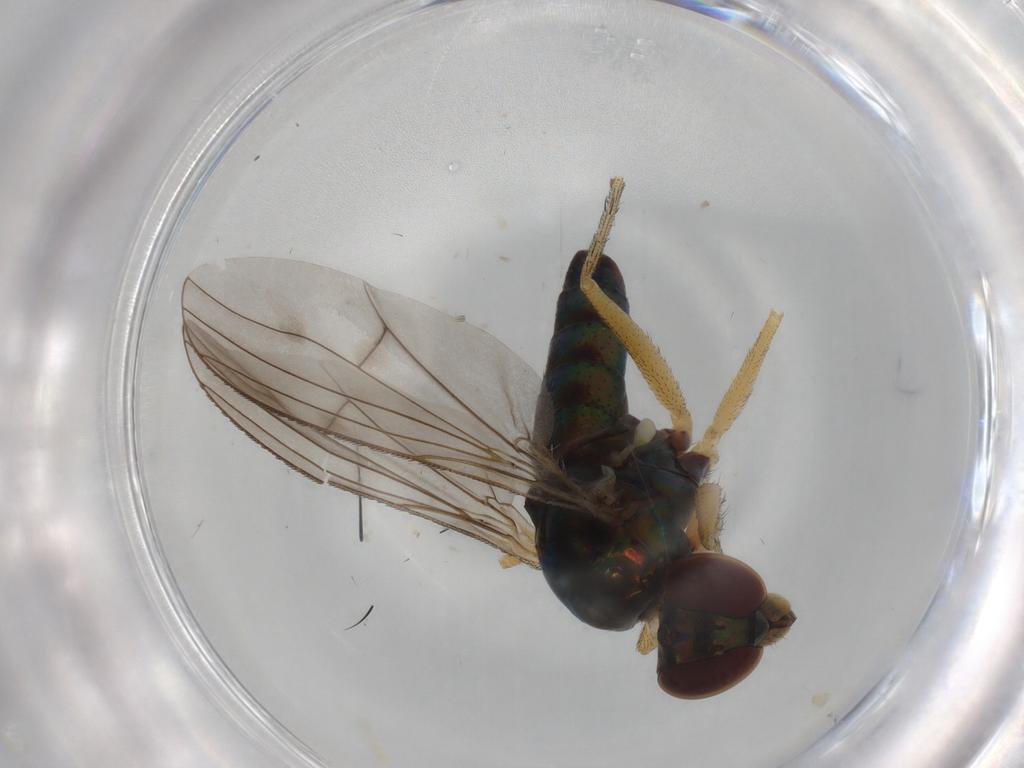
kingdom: Animalia
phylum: Arthropoda
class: Insecta
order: Diptera
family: Dolichopodidae
